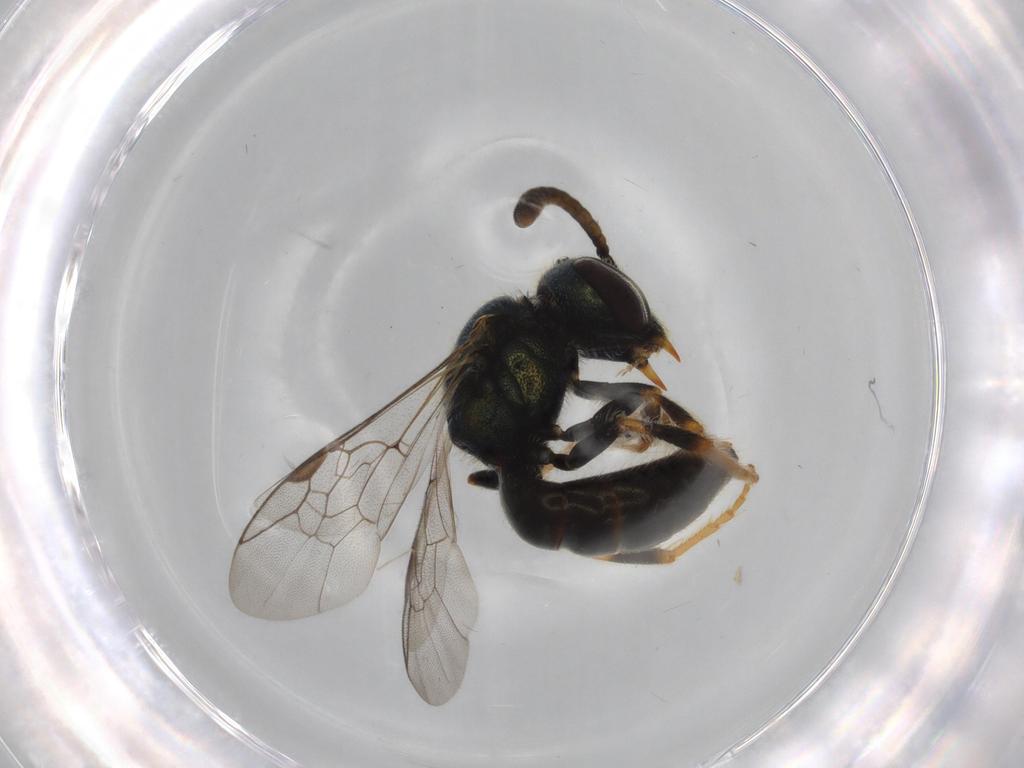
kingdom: Animalia
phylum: Arthropoda
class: Insecta
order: Hymenoptera
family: Halictidae
